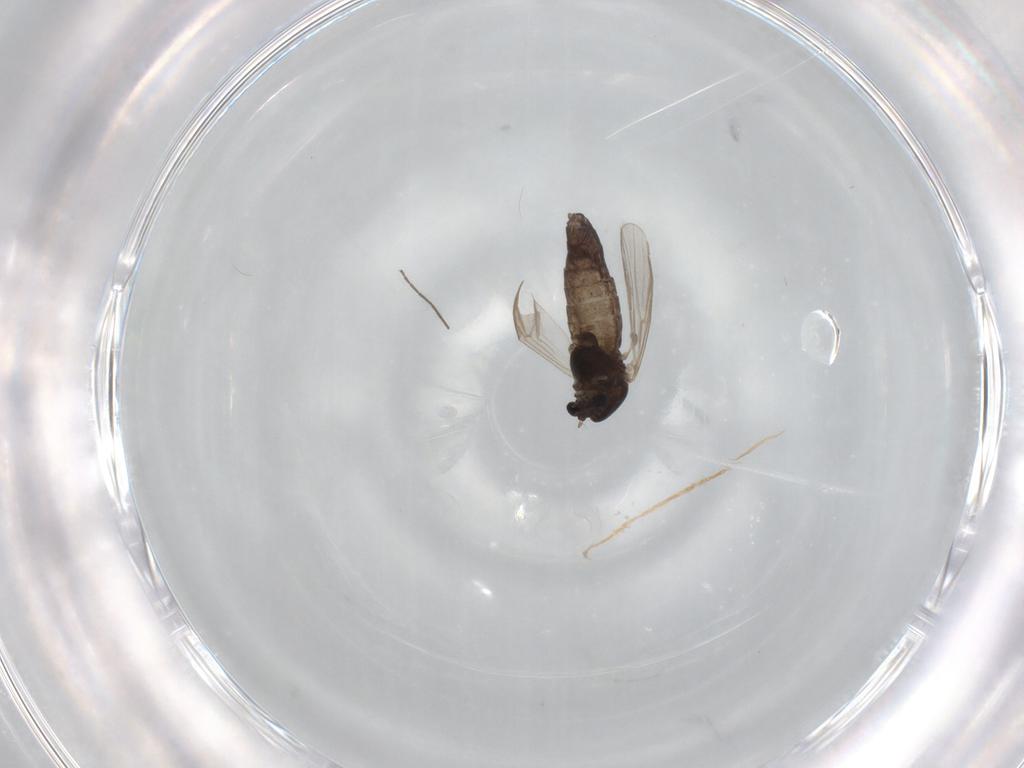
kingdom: Animalia
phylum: Arthropoda
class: Insecta
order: Diptera
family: Chironomidae
